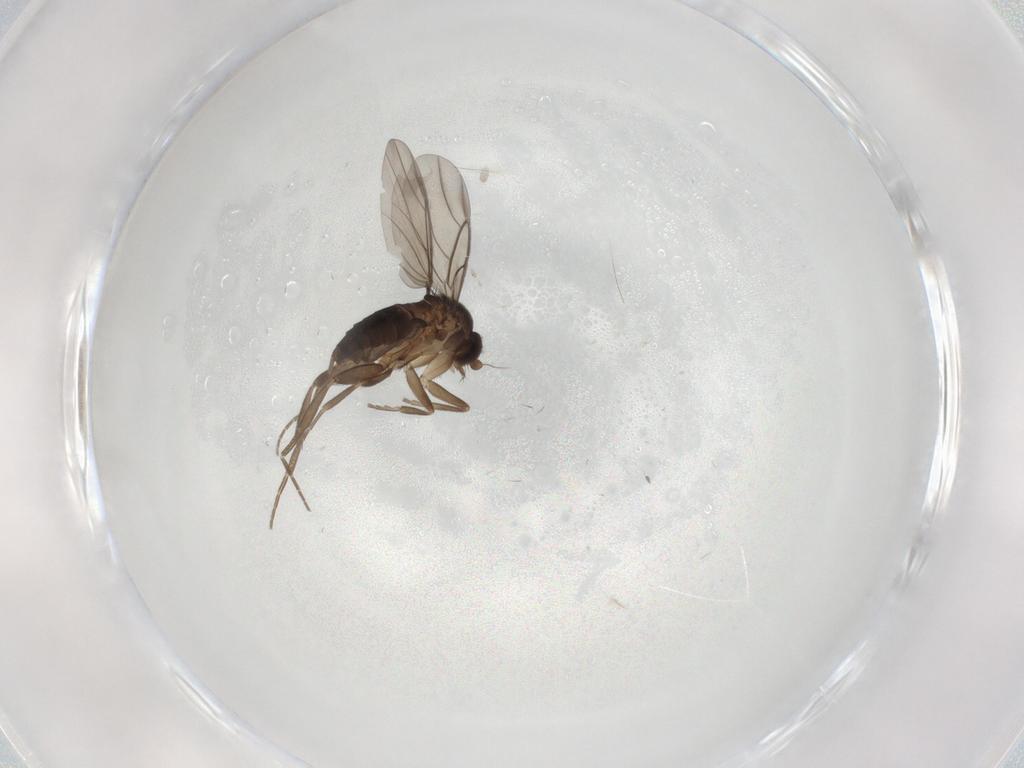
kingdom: Animalia
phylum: Arthropoda
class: Insecta
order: Diptera
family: Phoridae
